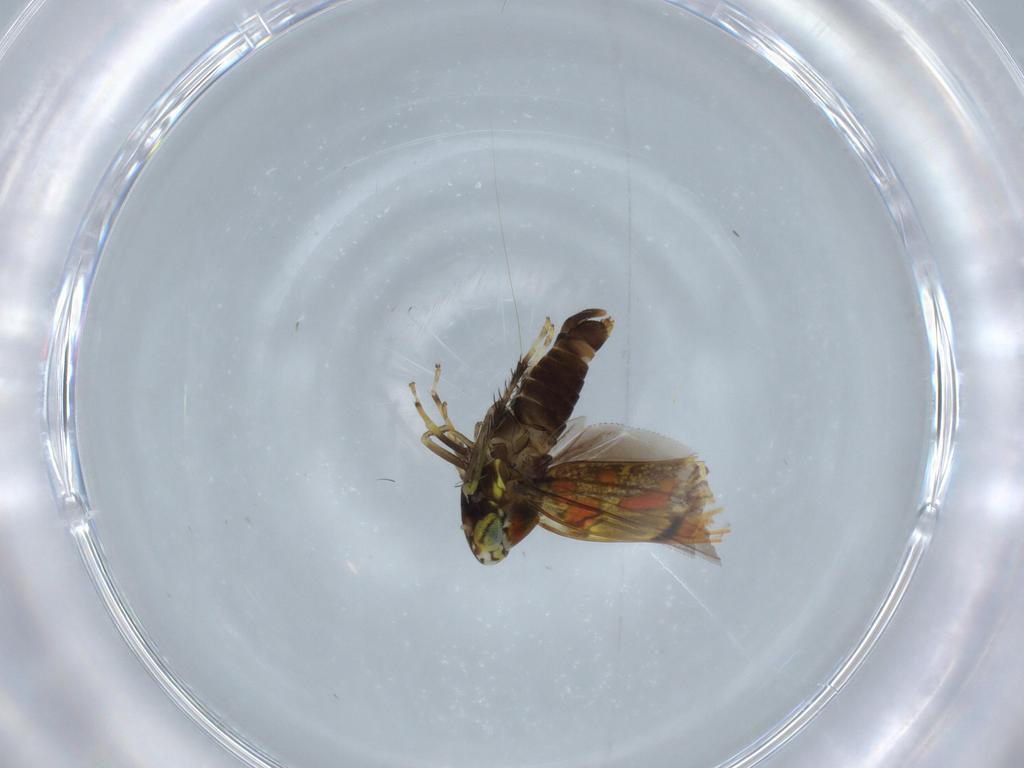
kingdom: Animalia
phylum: Arthropoda
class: Insecta
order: Hemiptera
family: Cicadellidae
